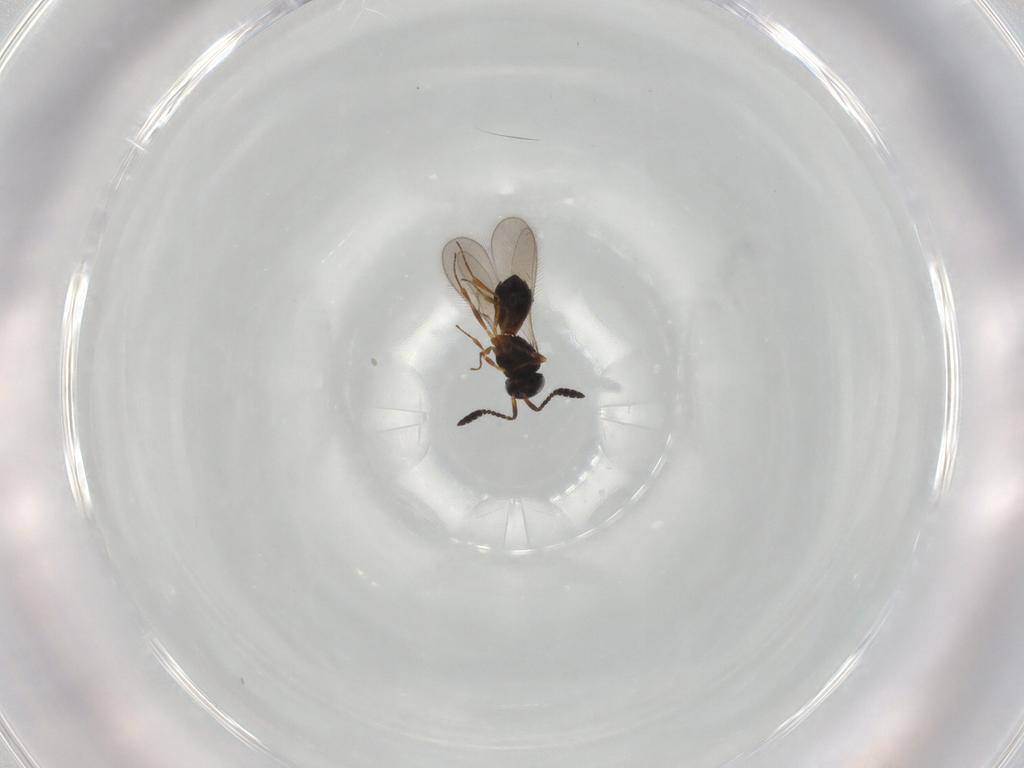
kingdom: Animalia
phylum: Arthropoda
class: Insecta
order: Hymenoptera
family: Scelionidae
